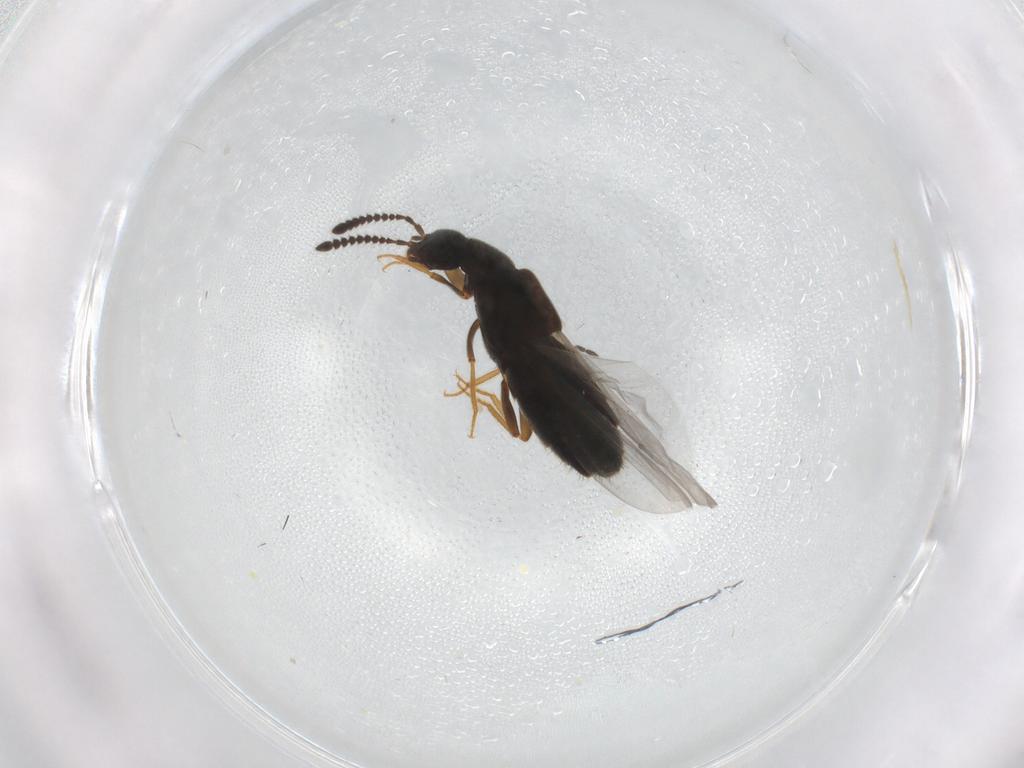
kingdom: Animalia
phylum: Arthropoda
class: Insecta
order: Coleoptera
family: Staphylinidae
